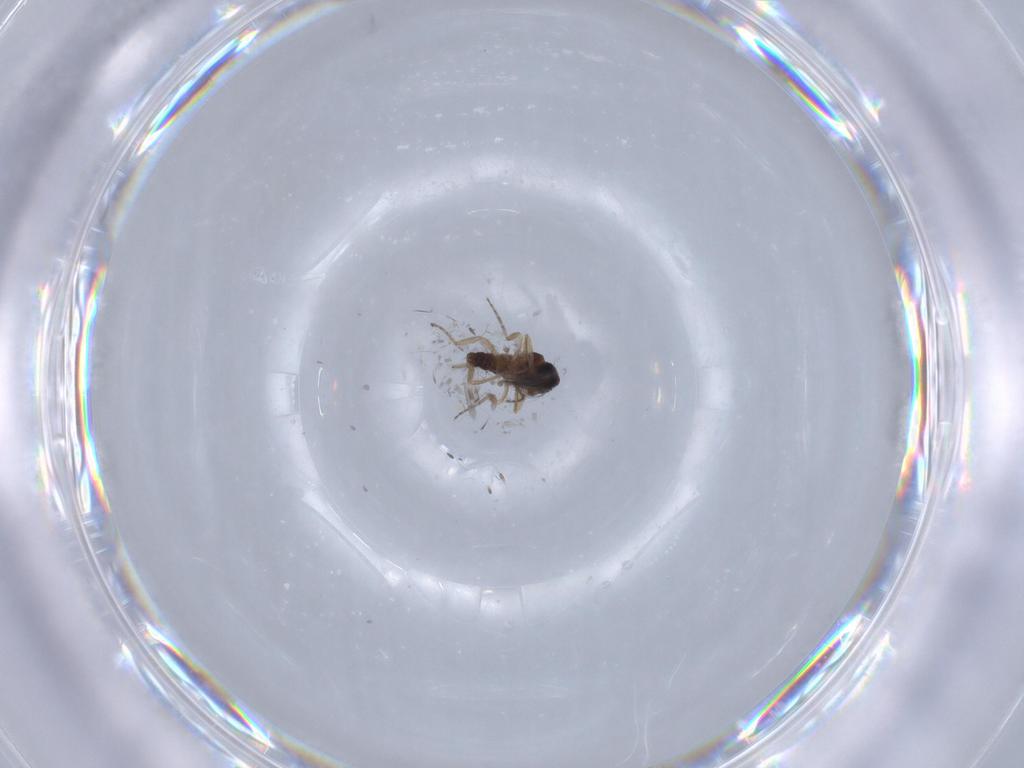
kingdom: Animalia
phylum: Arthropoda
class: Insecta
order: Diptera
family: Ceratopogonidae
